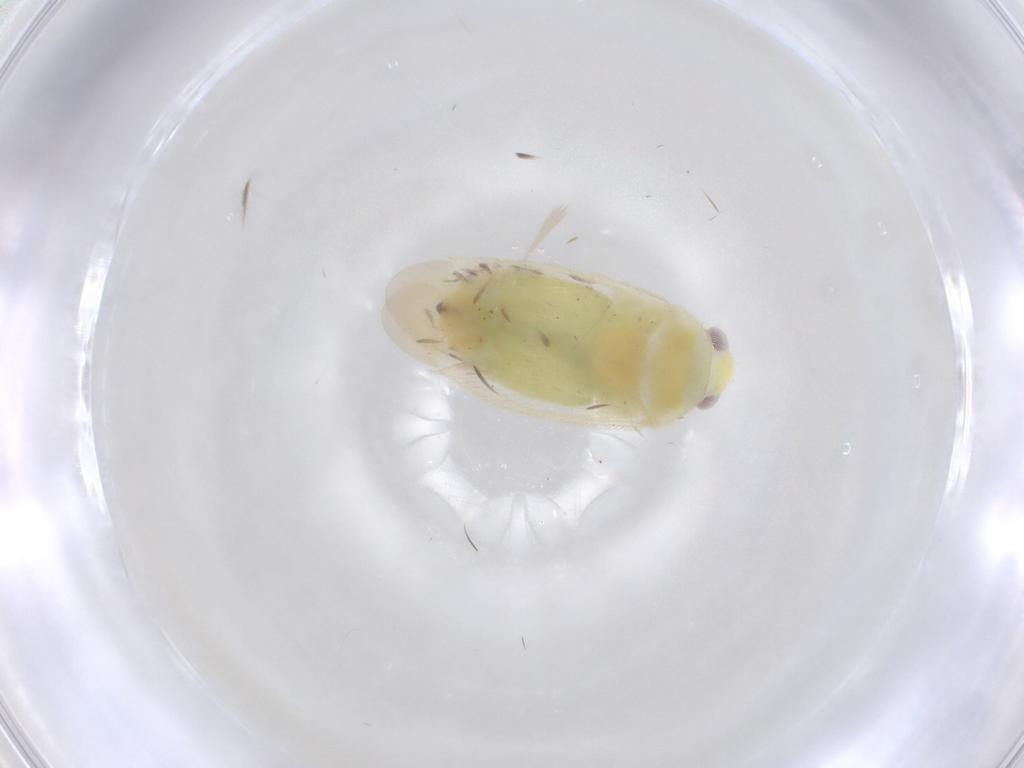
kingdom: Animalia
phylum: Arthropoda
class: Insecta
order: Hemiptera
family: Miridae
